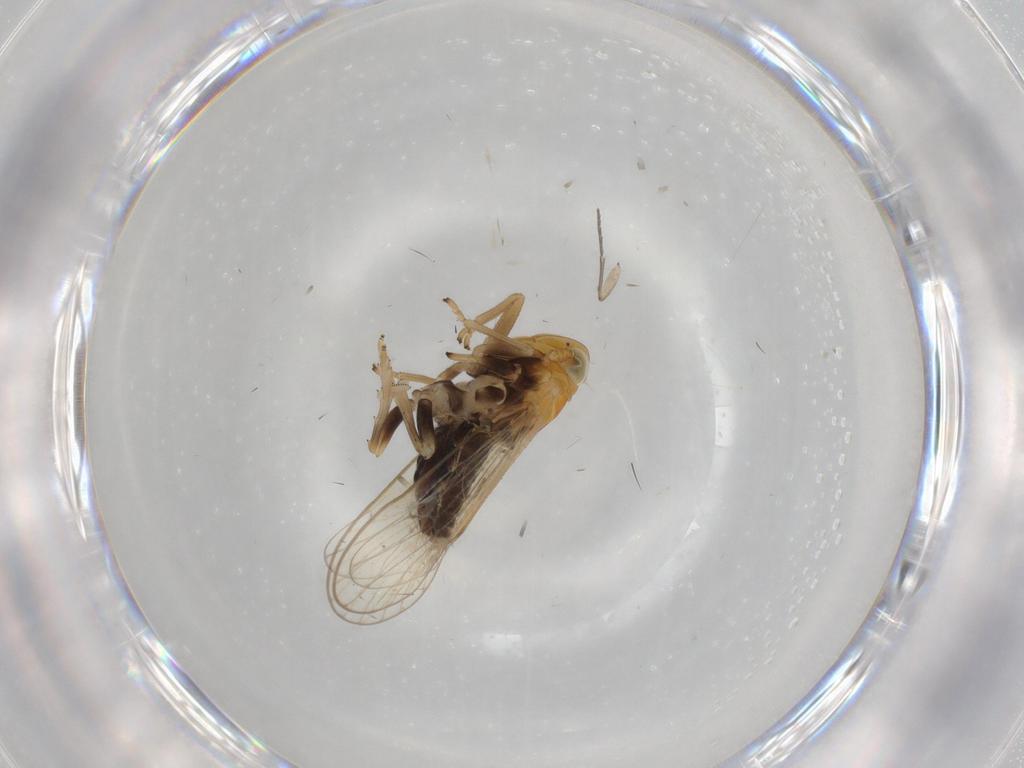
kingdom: Animalia
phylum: Arthropoda
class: Insecta
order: Hemiptera
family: Delphacidae
